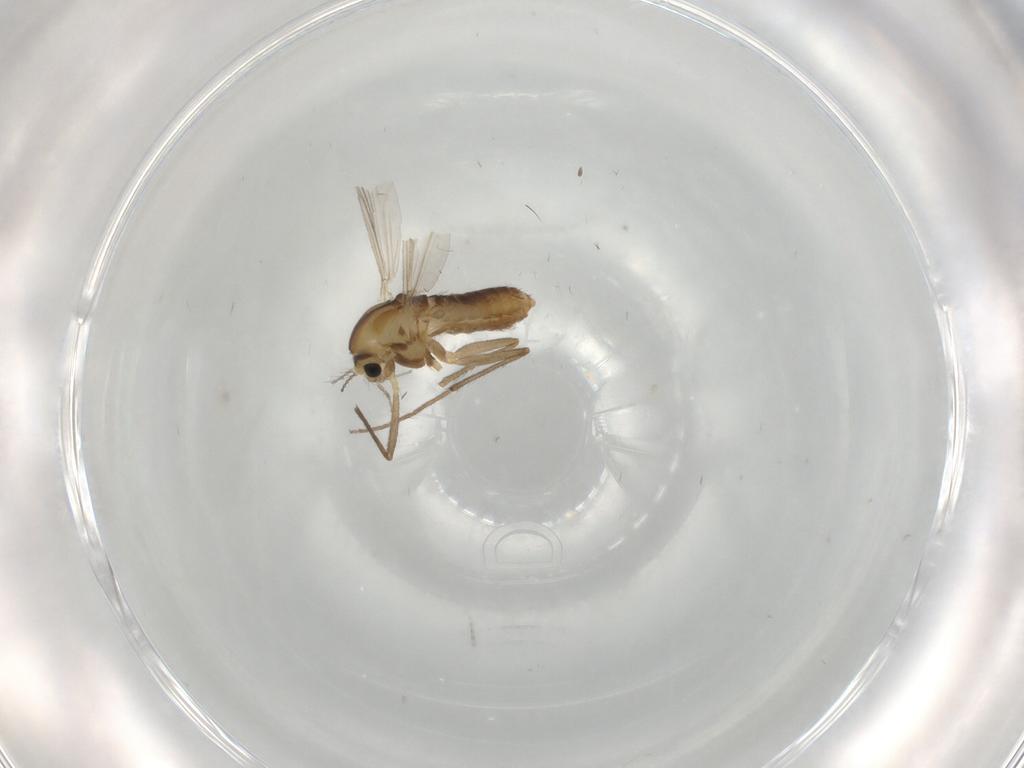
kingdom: Animalia
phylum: Arthropoda
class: Insecta
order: Diptera
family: Chironomidae
